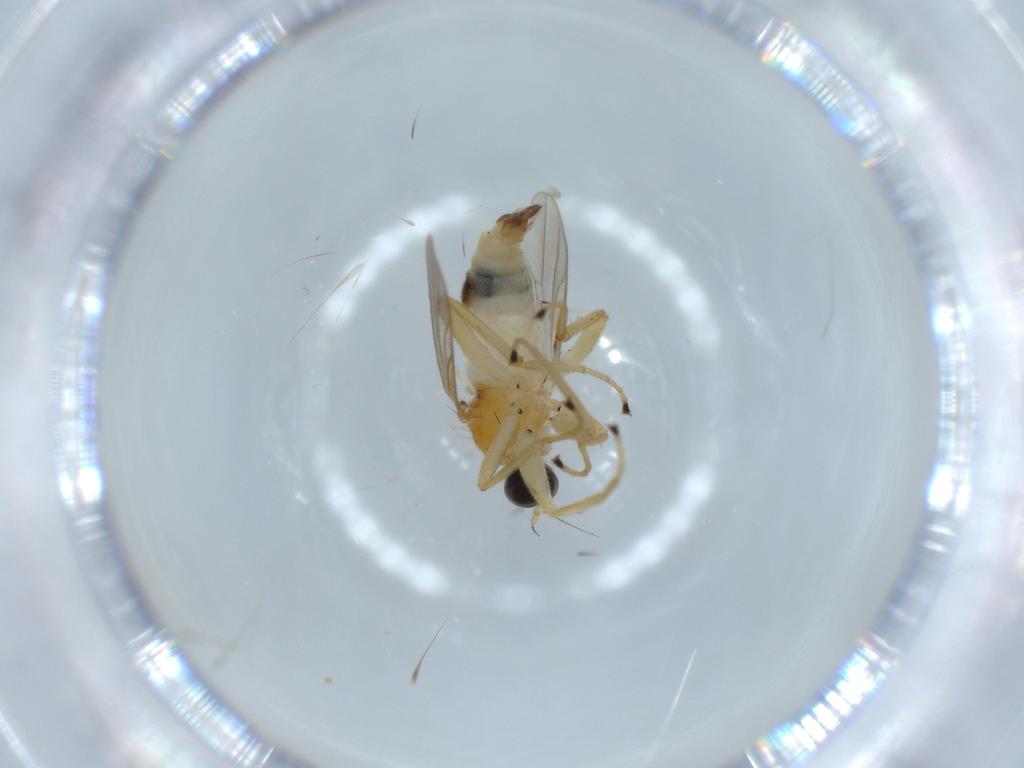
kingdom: Animalia
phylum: Arthropoda
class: Insecta
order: Diptera
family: Hybotidae
